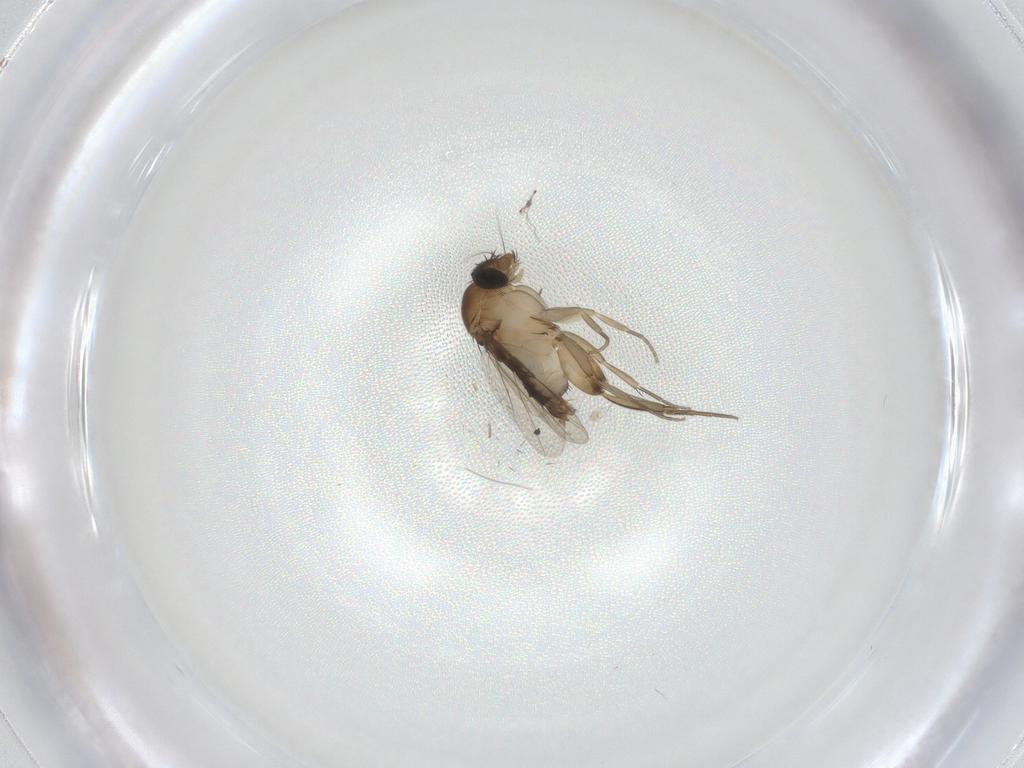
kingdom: Animalia
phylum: Arthropoda
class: Insecta
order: Diptera
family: Phoridae
